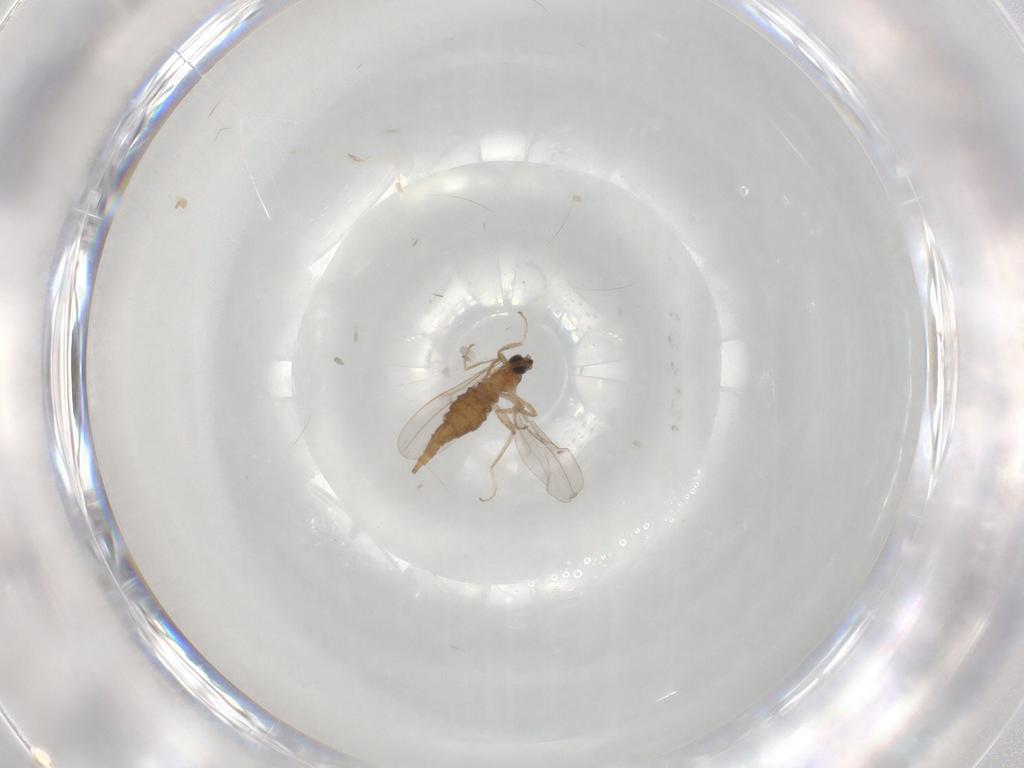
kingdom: Animalia
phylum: Arthropoda
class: Insecta
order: Diptera
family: Cecidomyiidae
